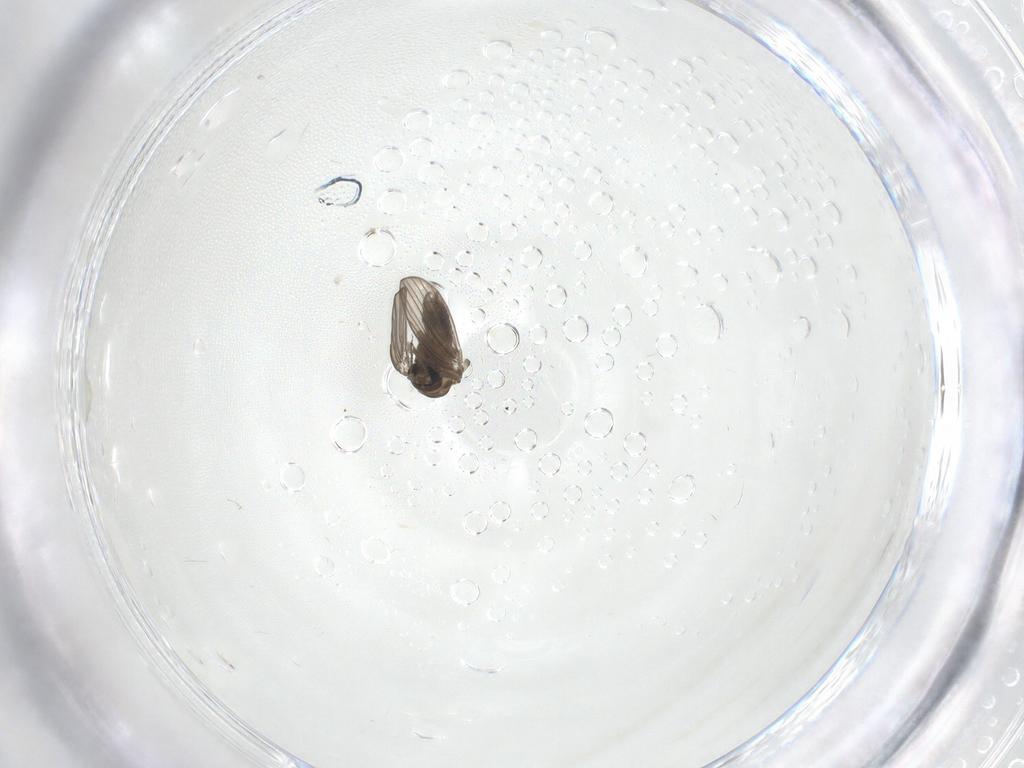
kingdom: Animalia
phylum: Arthropoda
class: Insecta
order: Diptera
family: Psychodidae
